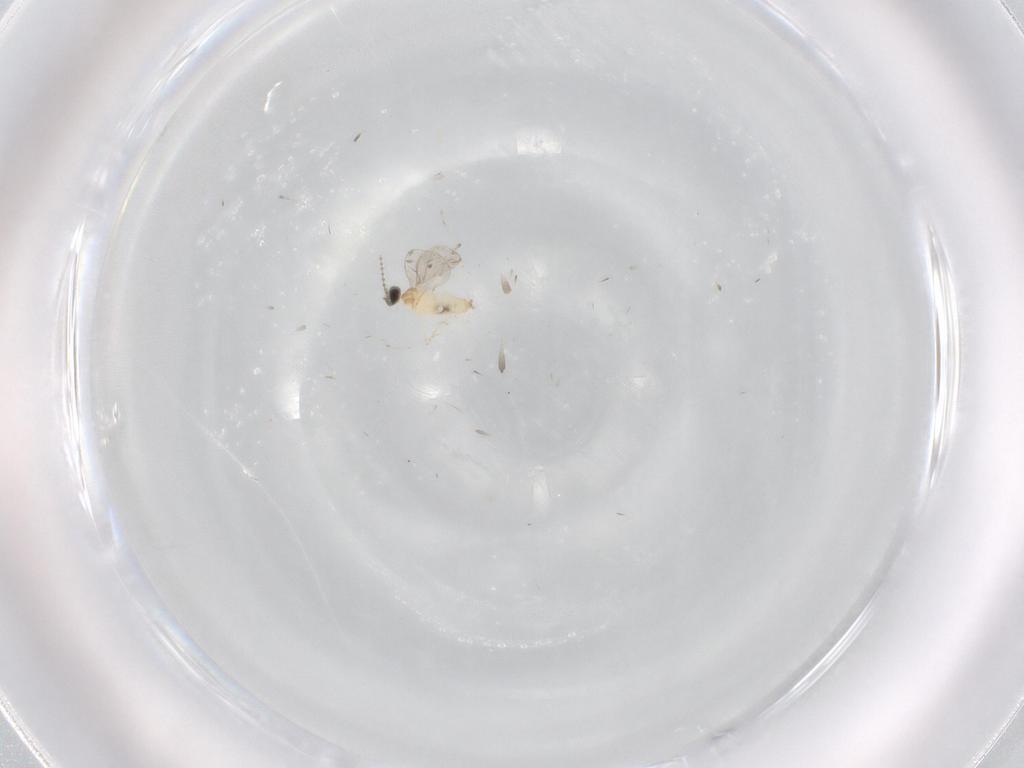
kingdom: Animalia
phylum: Arthropoda
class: Insecta
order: Diptera
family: Cecidomyiidae
